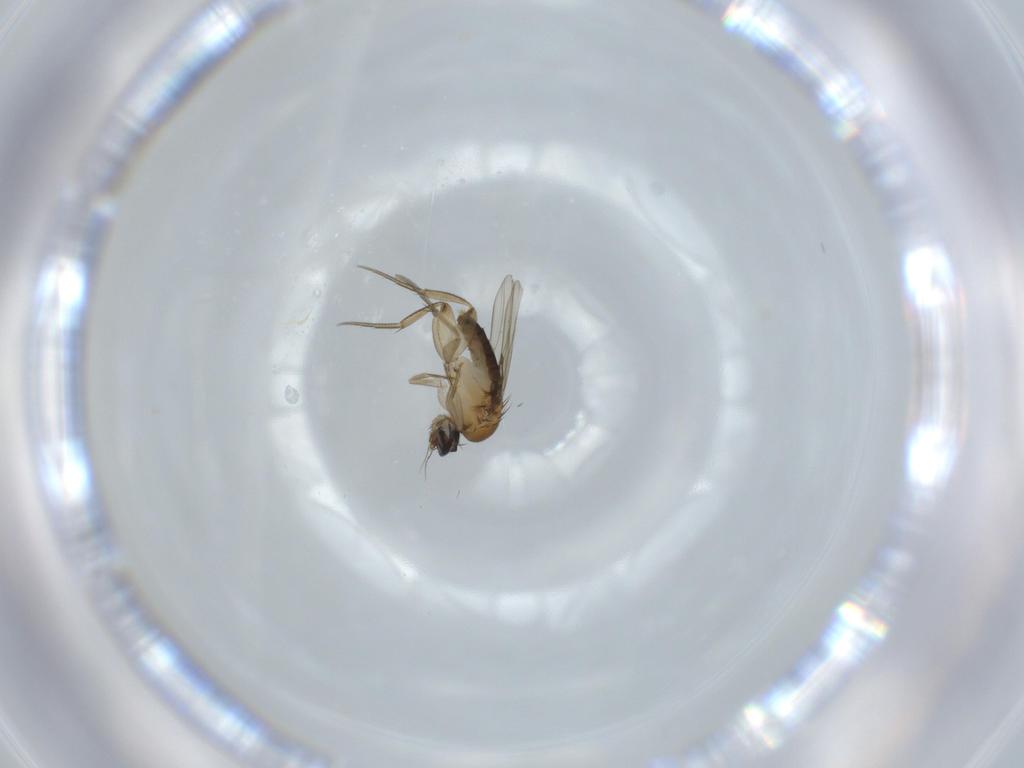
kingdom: Animalia
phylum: Arthropoda
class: Insecta
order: Diptera
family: Phoridae
